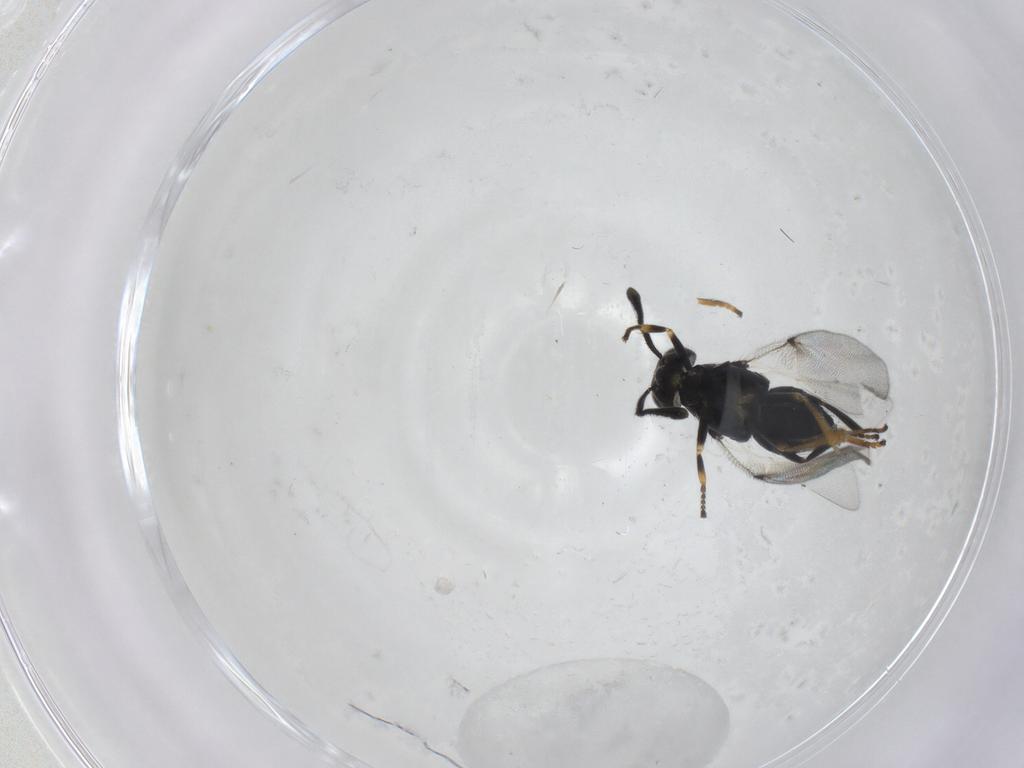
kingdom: Animalia
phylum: Arthropoda
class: Insecta
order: Hymenoptera
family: Encyrtidae
